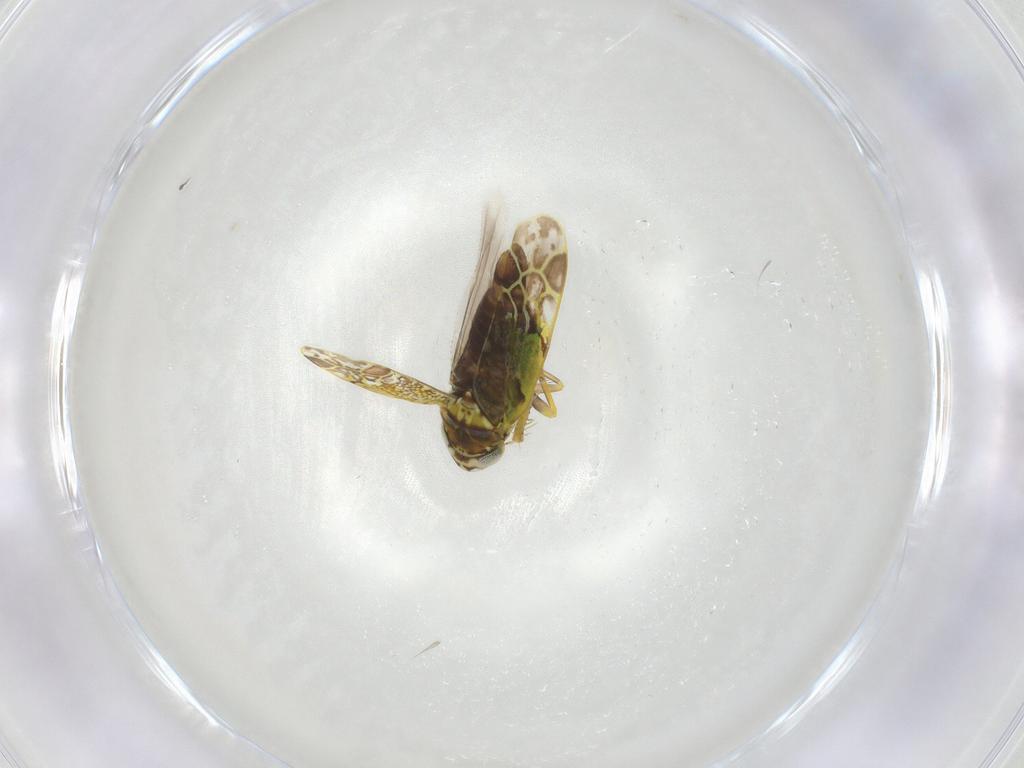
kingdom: Animalia
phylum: Arthropoda
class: Insecta
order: Hemiptera
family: Cicadellidae
